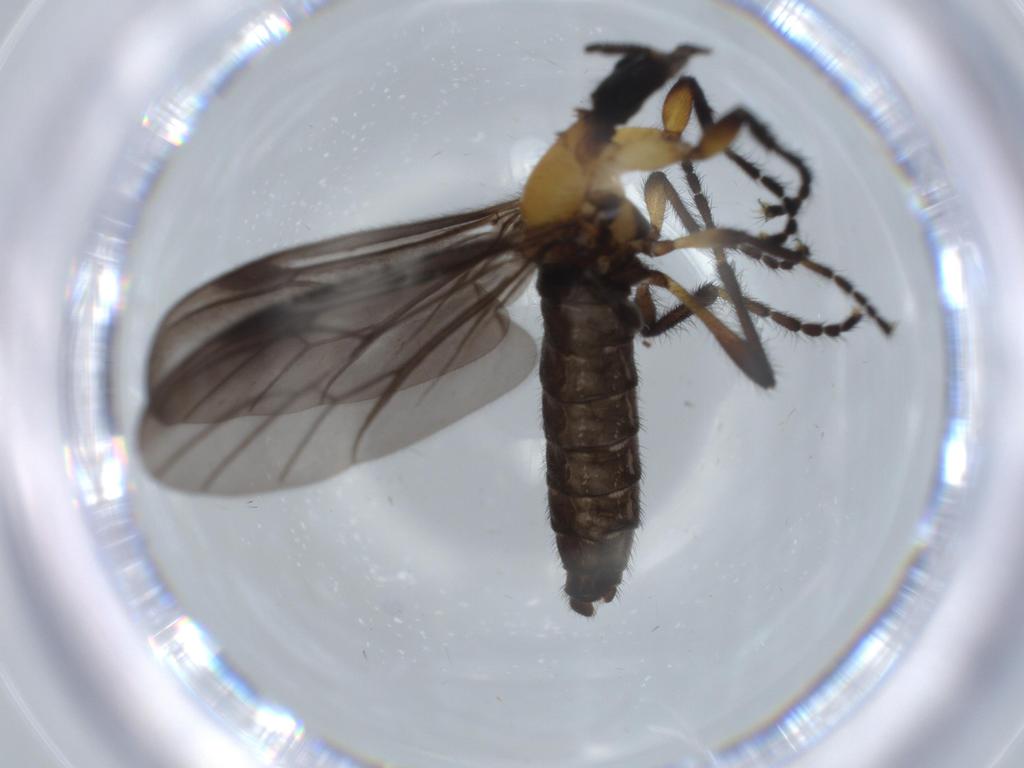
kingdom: Animalia
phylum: Arthropoda
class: Insecta
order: Diptera
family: Bibionidae
